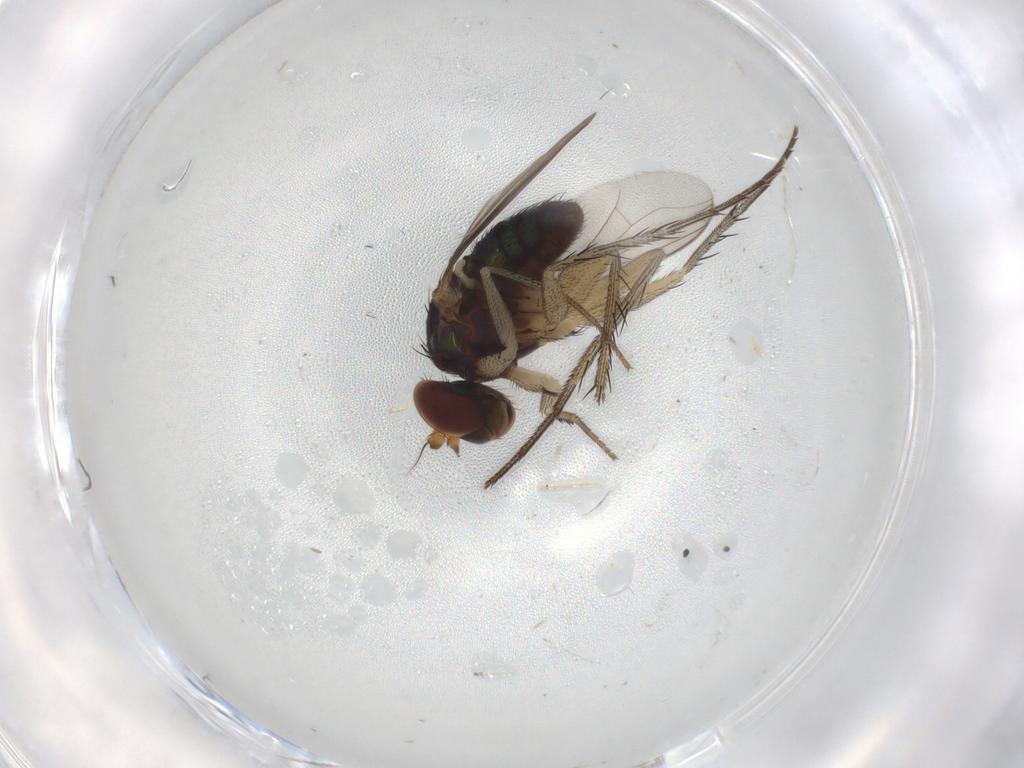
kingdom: Animalia
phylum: Arthropoda
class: Insecta
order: Diptera
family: Dolichopodidae
